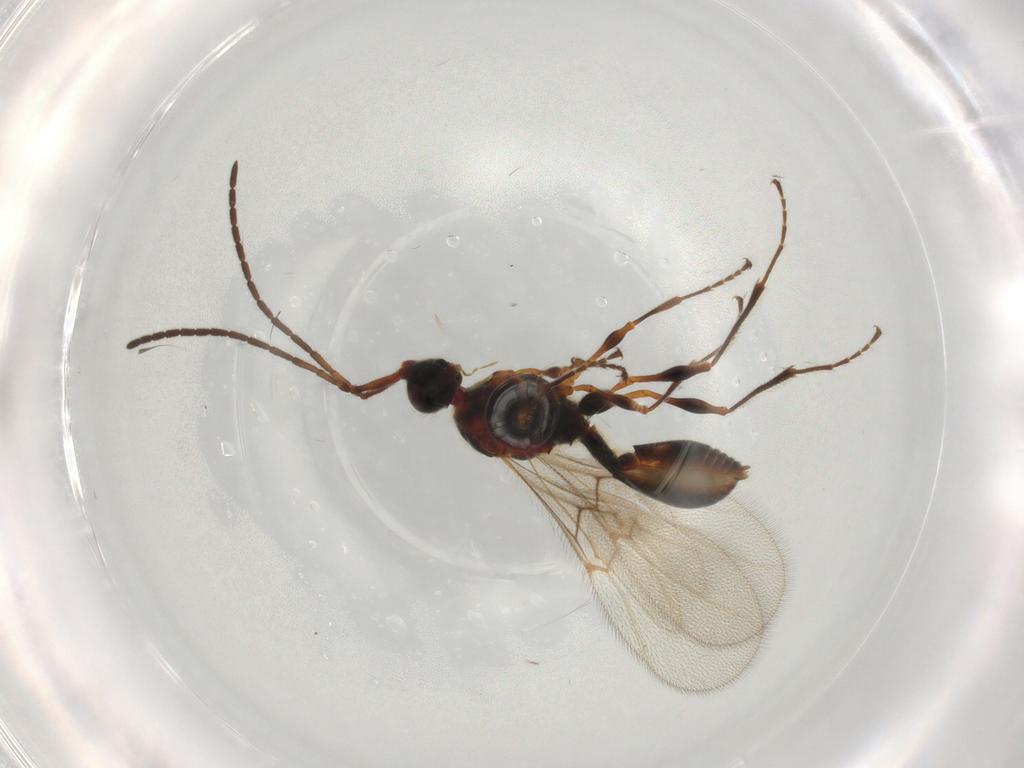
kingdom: Animalia
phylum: Arthropoda
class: Insecta
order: Hymenoptera
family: Diapriidae
